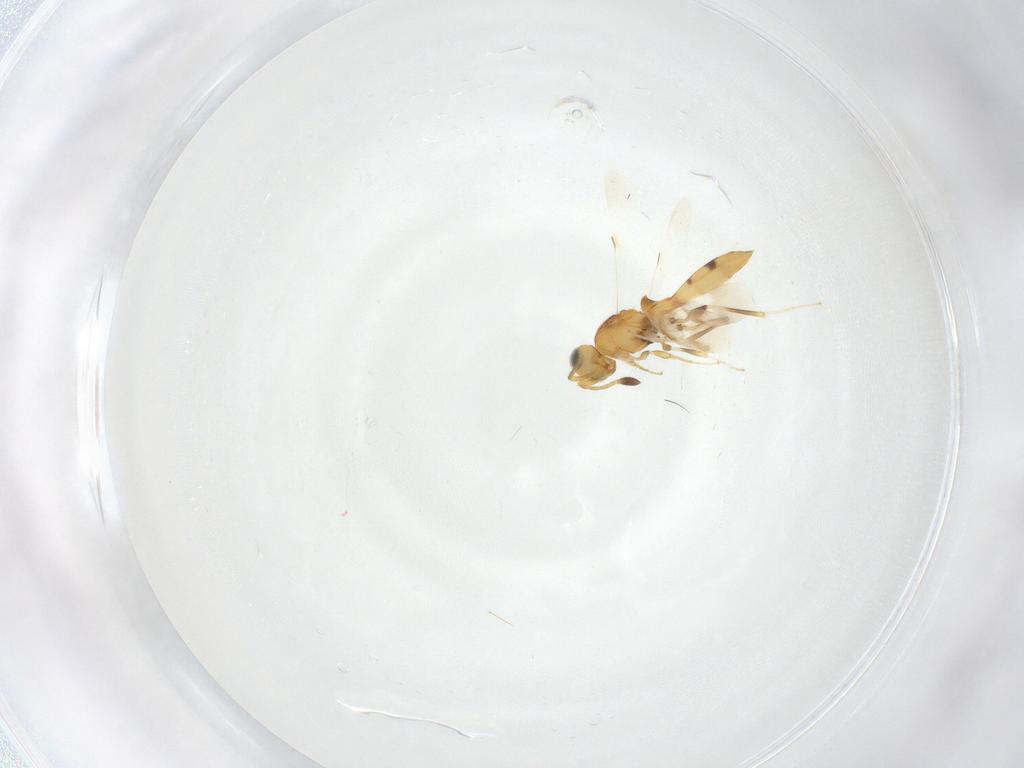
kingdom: Animalia
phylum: Arthropoda
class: Insecta
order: Hymenoptera
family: Scelionidae
